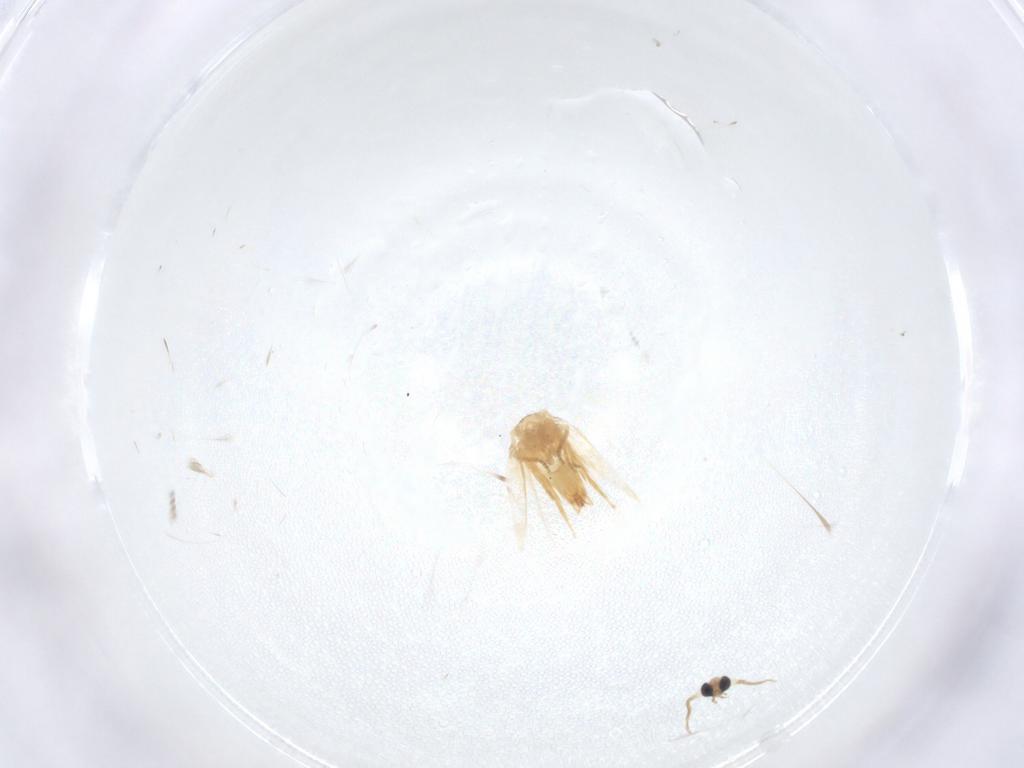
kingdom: Animalia
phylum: Arthropoda
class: Insecta
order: Lepidoptera
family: Crambidae
